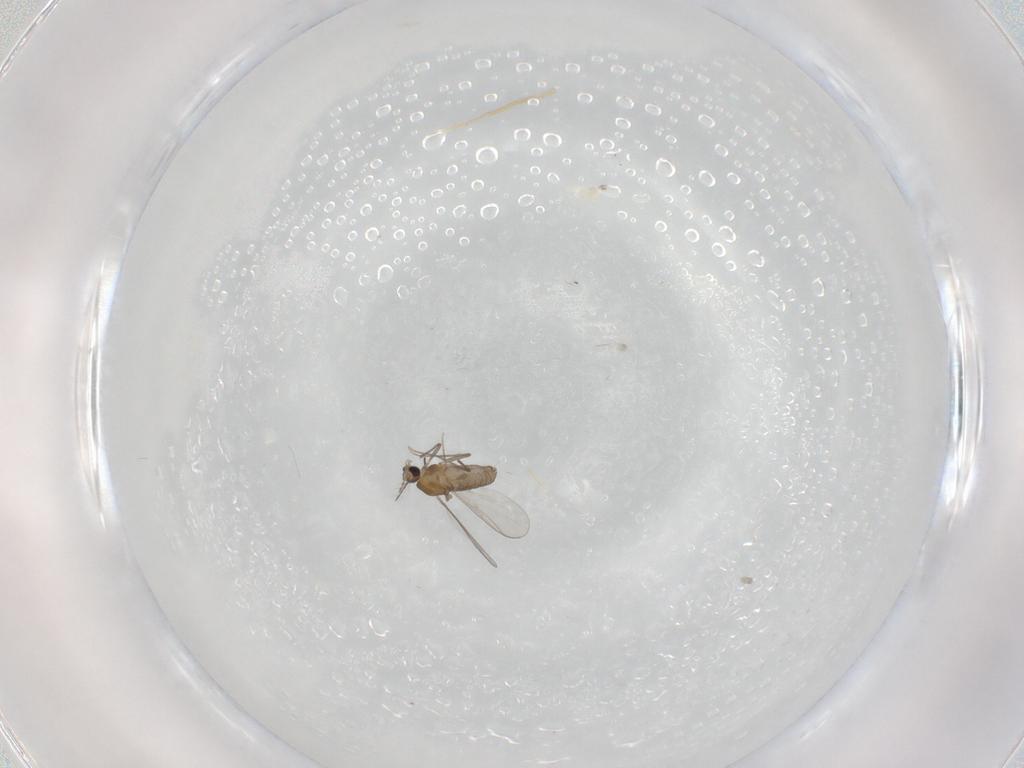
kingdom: Animalia
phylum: Arthropoda
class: Insecta
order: Diptera
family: Chironomidae
